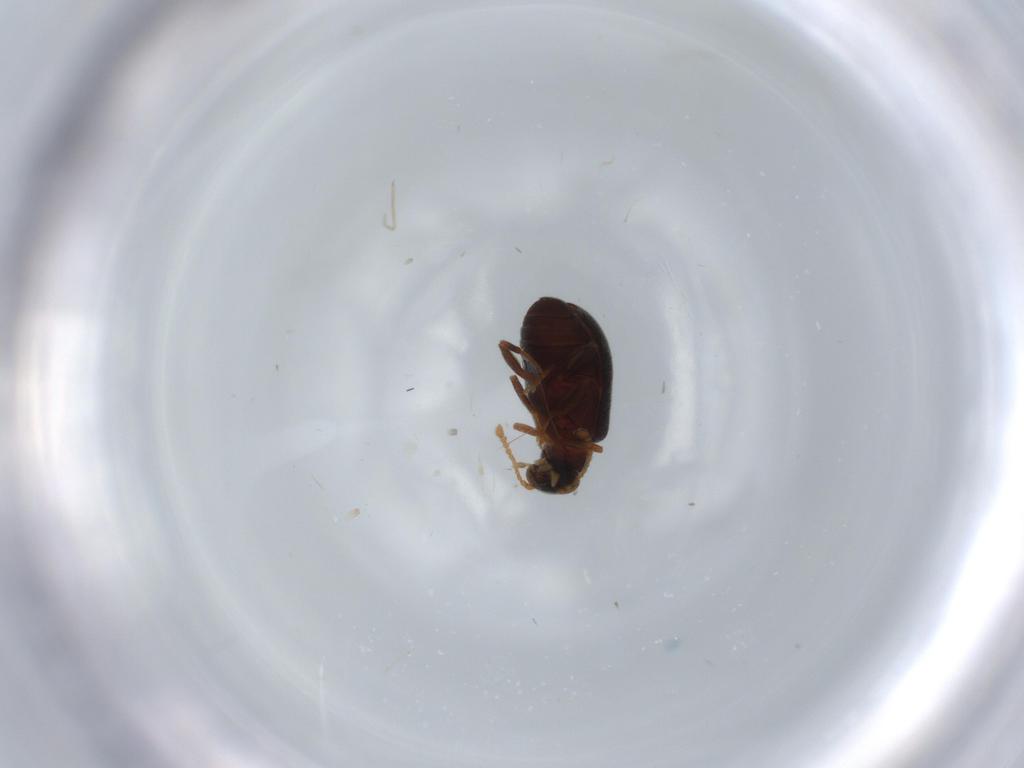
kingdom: Animalia
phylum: Arthropoda
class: Insecta
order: Coleoptera
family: Aderidae
